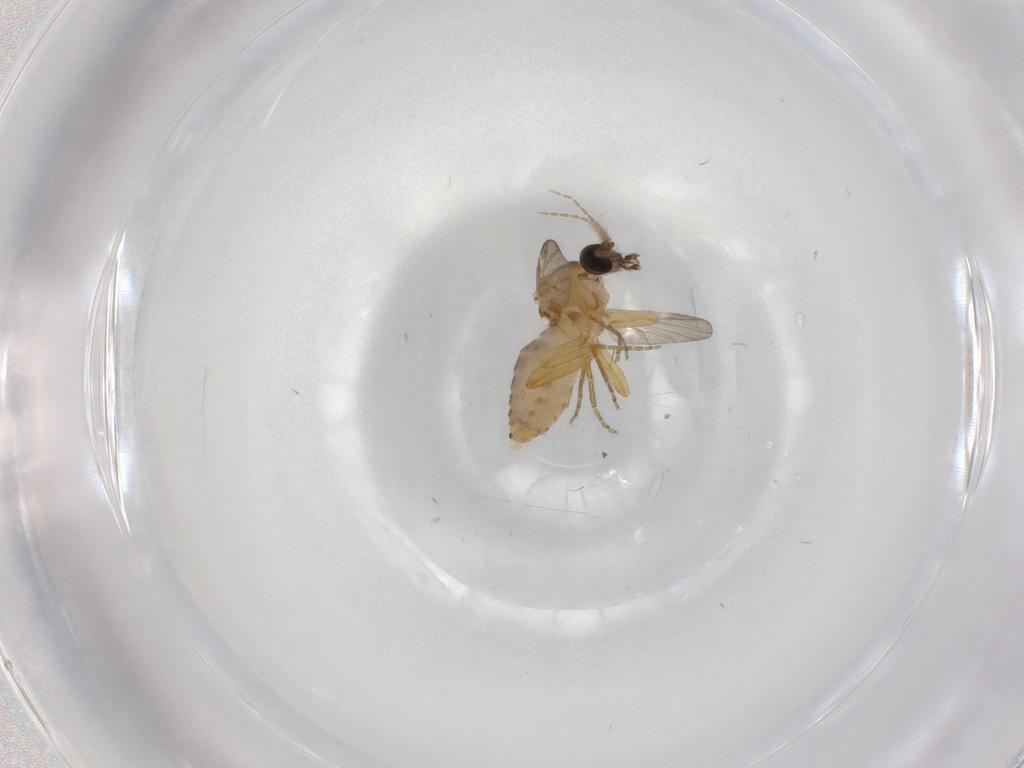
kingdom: Animalia
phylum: Arthropoda
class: Insecta
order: Diptera
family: Ceratopogonidae
